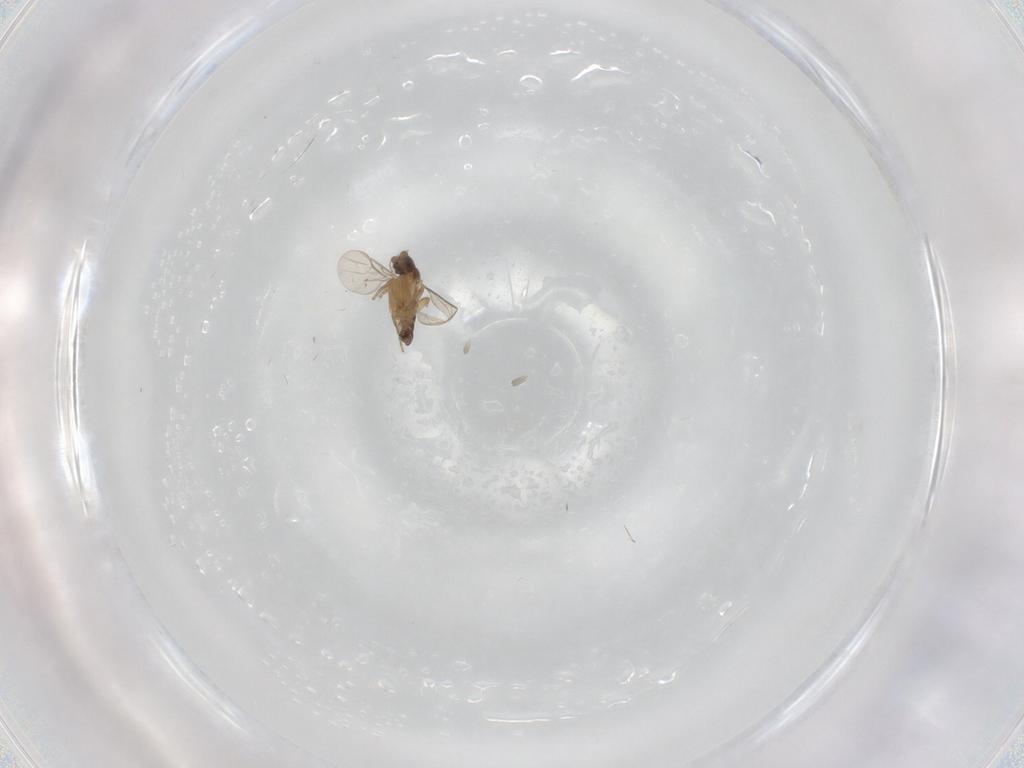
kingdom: Animalia
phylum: Arthropoda
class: Insecta
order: Diptera
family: Phoridae
